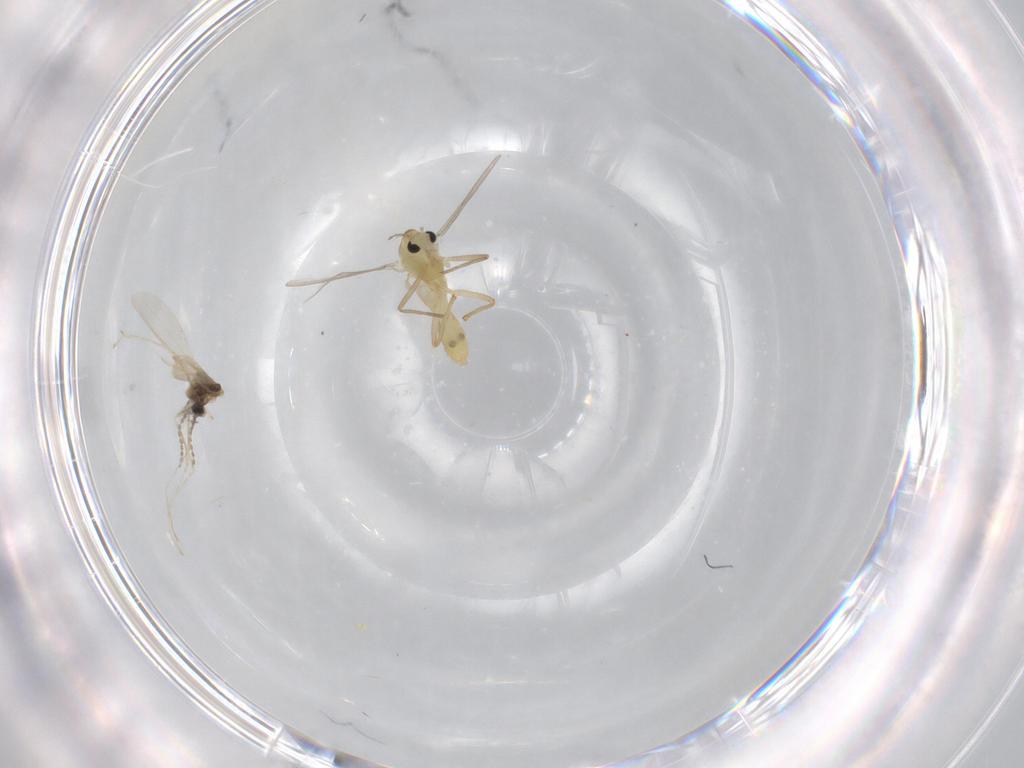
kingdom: Animalia
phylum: Arthropoda
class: Insecta
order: Diptera
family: Chironomidae
